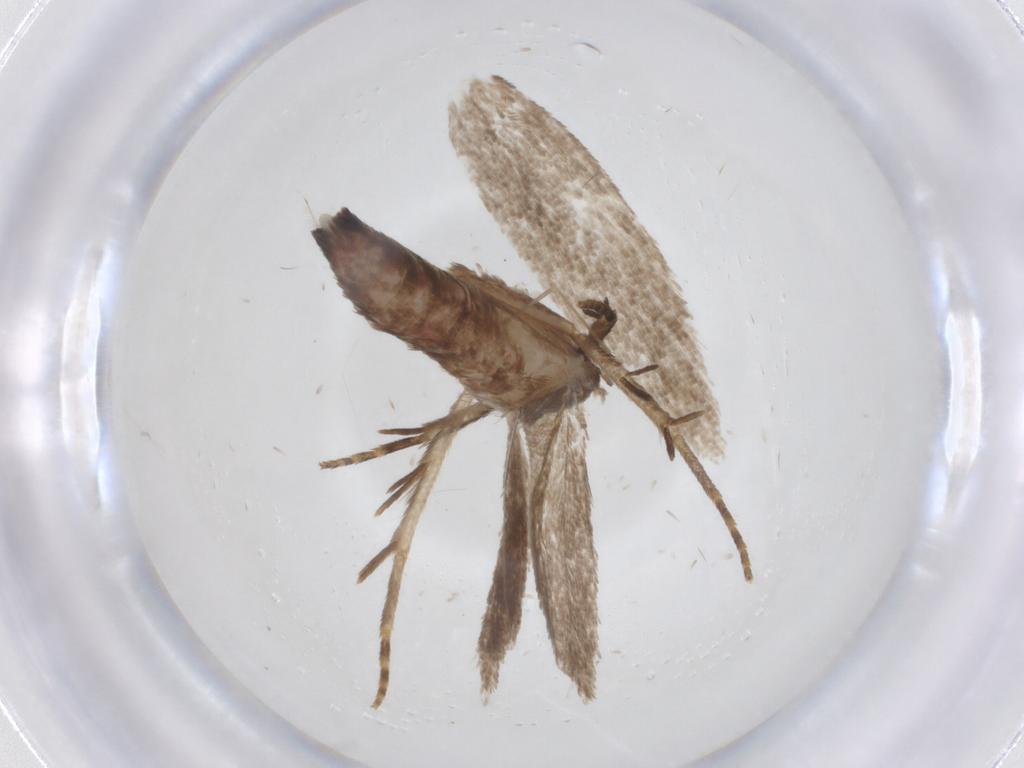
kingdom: Animalia
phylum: Arthropoda
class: Insecta
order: Lepidoptera
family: Gelechiidae
